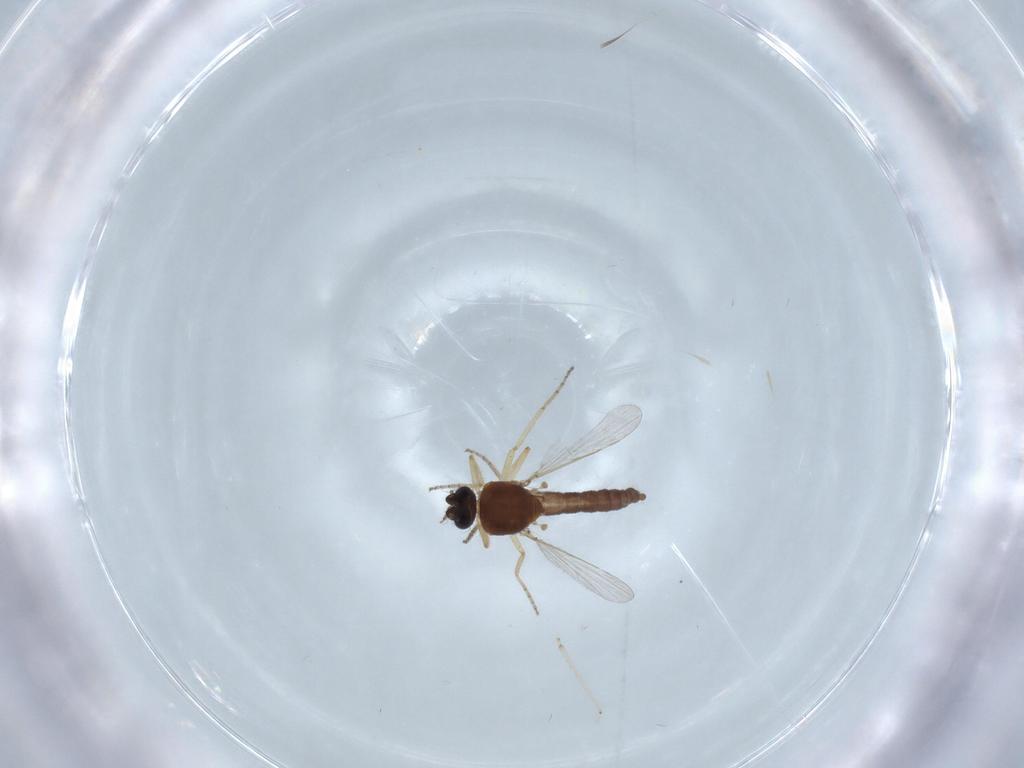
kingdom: Animalia
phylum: Arthropoda
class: Insecta
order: Diptera
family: Cecidomyiidae
